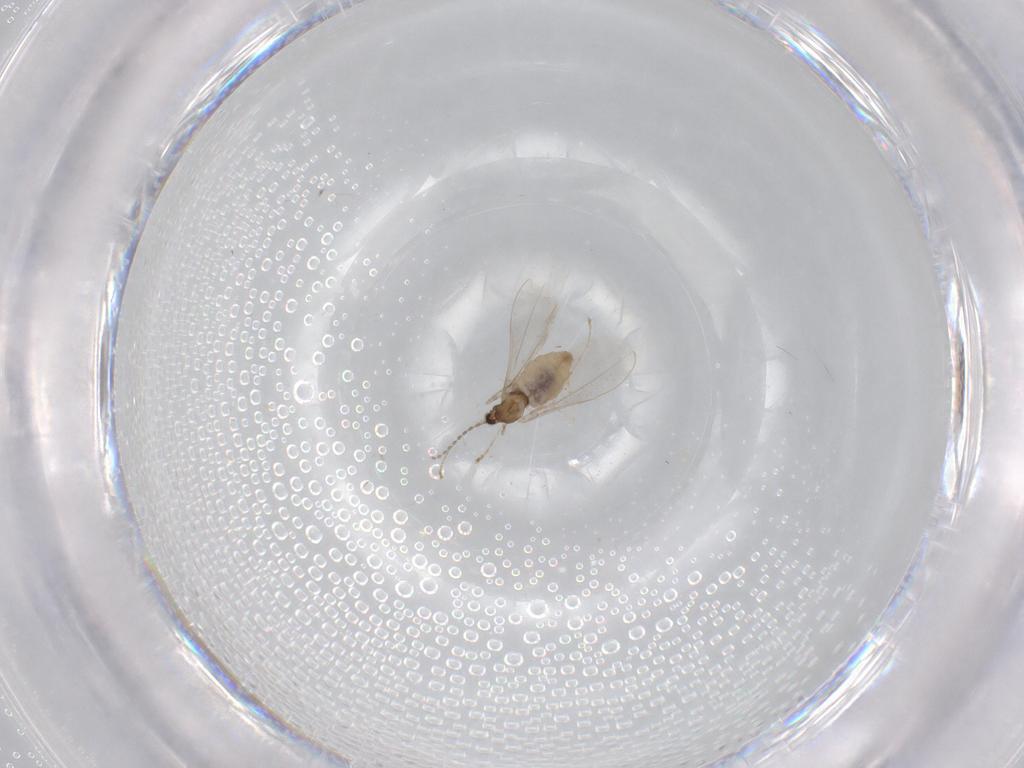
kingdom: Animalia
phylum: Arthropoda
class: Insecta
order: Diptera
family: Cecidomyiidae
